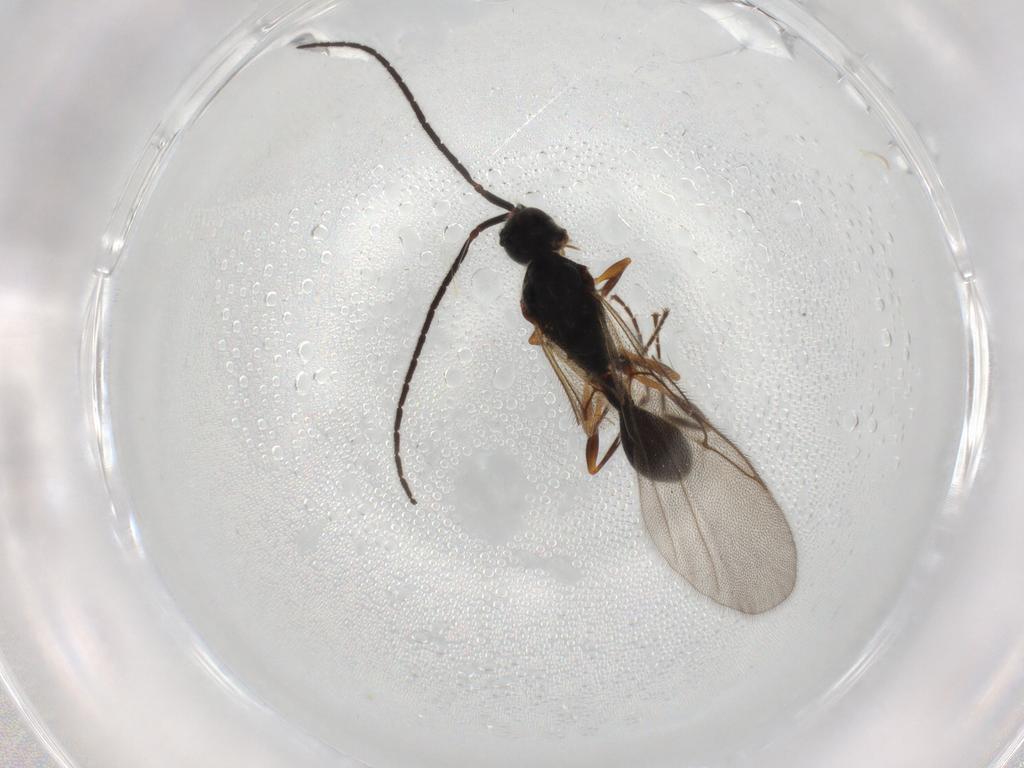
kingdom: Animalia
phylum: Arthropoda
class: Insecta
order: Hymenoptera
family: Diapriidae
